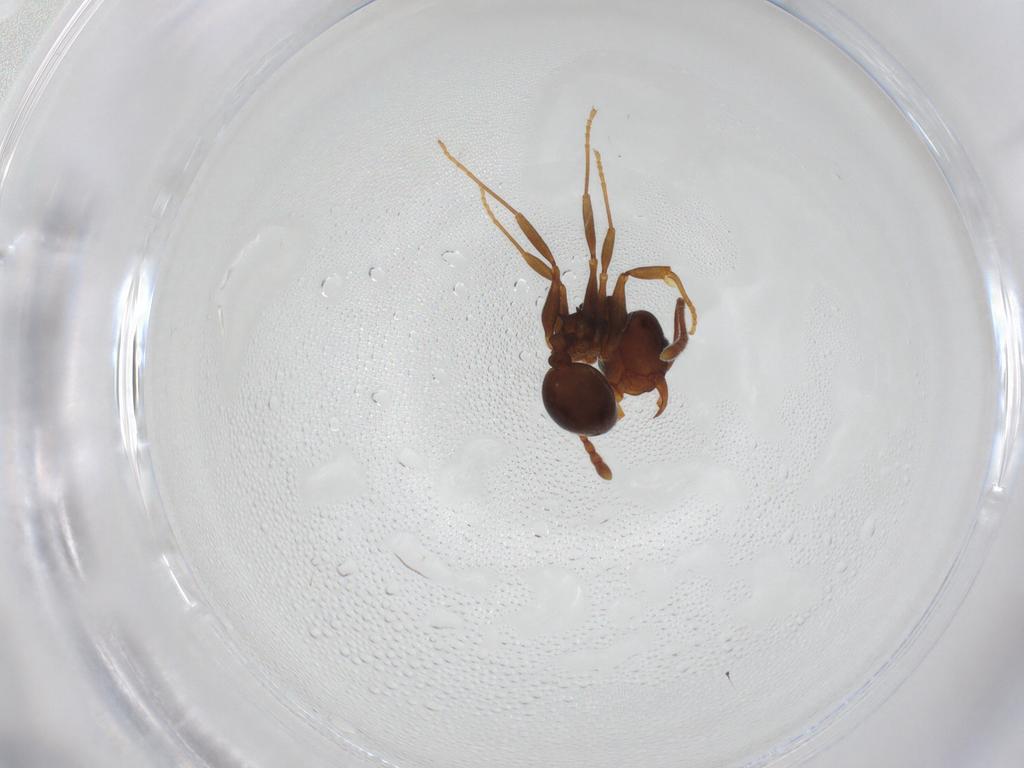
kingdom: Animalia
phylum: Arthropoda
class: Insecta
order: Hymenoptera
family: Formicidae
